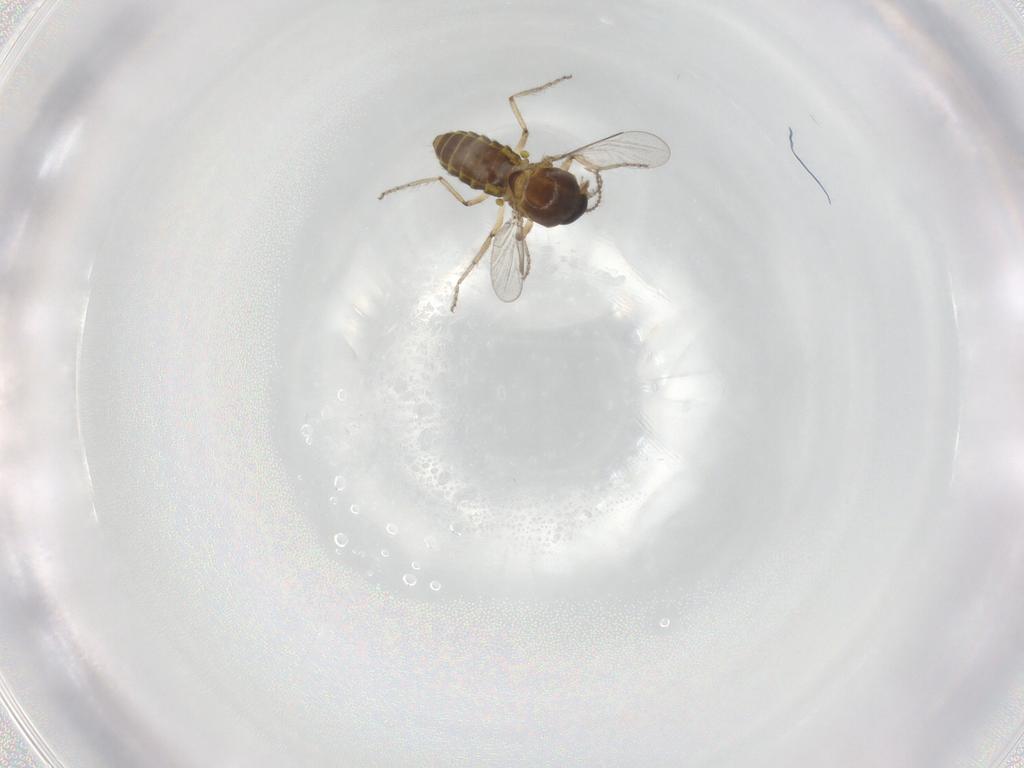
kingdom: Animalia
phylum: Arthropoda
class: Insecta
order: Diptera
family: Ceratopogonidae
